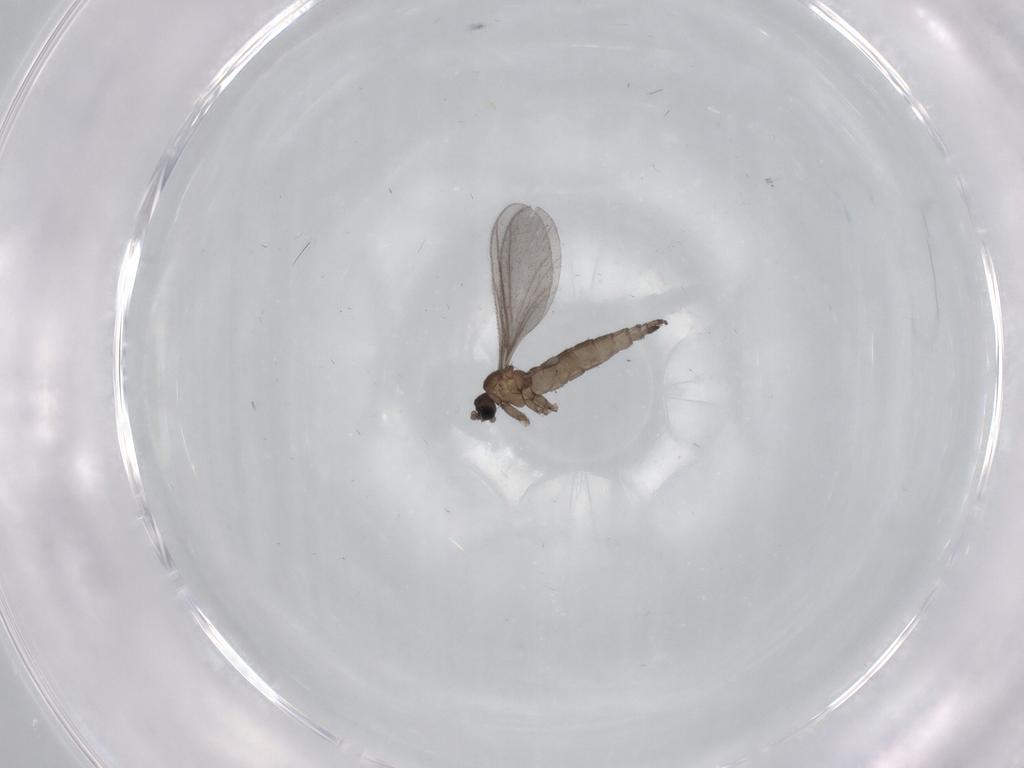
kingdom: Animalia
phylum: Arthropoda
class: Insecta
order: Diptera
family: Sciaridae
